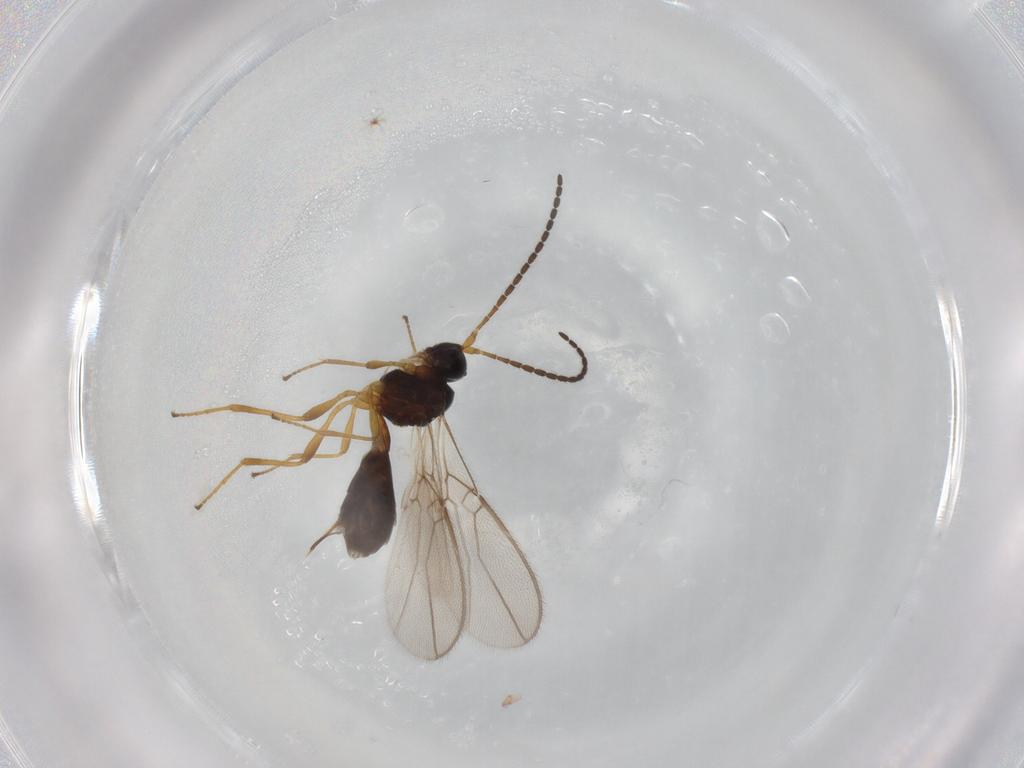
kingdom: Animalia
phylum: Arthropoda
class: Insecta
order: Hymenoptera
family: Braconidae
